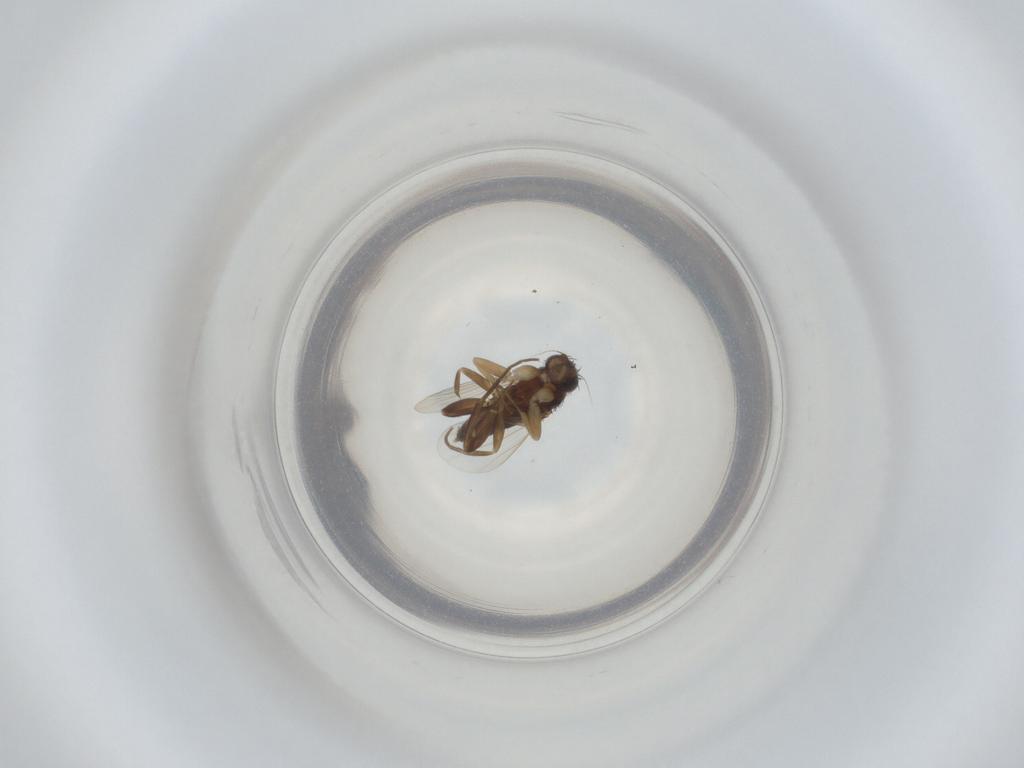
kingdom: Animalia
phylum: Arthropoda
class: Insecta
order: Diptera
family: Phoridae
